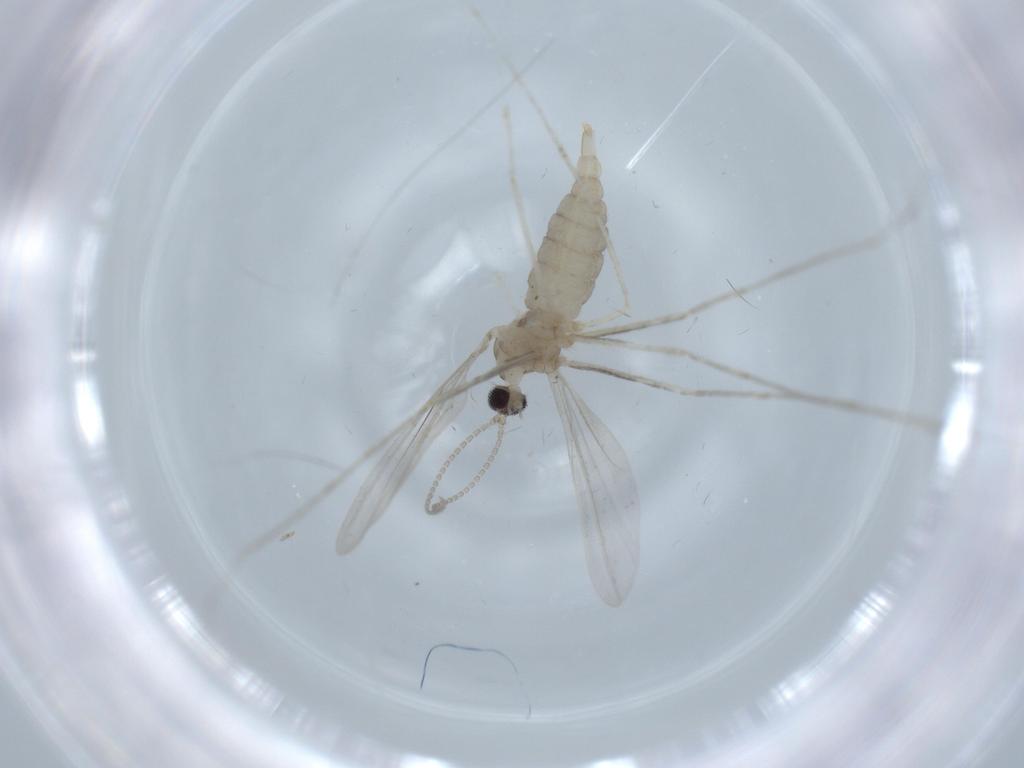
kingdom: Animalia
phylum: Arthropoda
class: Insecta
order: Diptera
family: Cecidomyiidae
